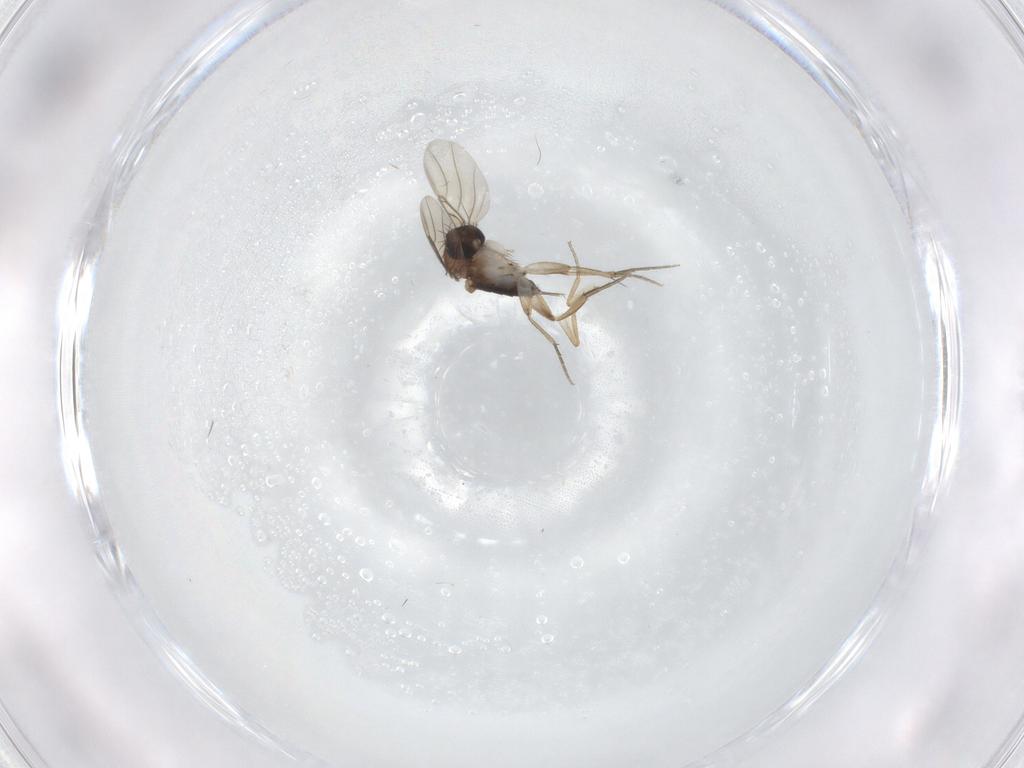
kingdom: Animalia
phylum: Arthropoda
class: Insecta
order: Diptera
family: Phoridae
